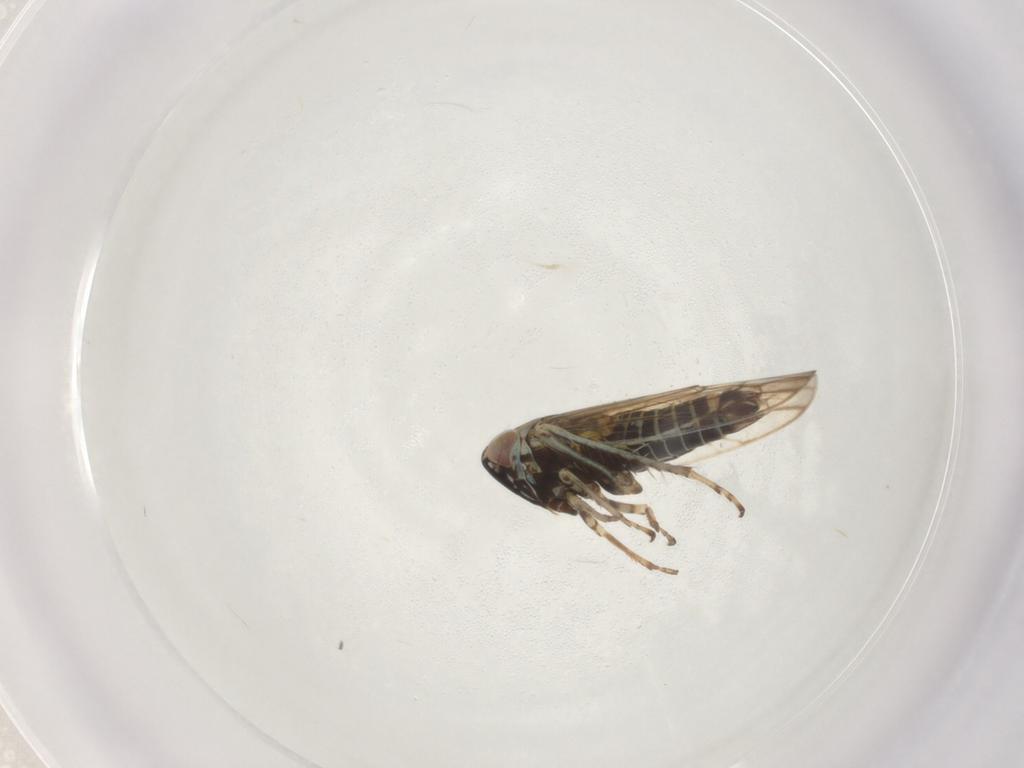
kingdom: Animalia
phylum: Arthropoda
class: Insecta
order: Hemiptera
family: Cicadellidae
